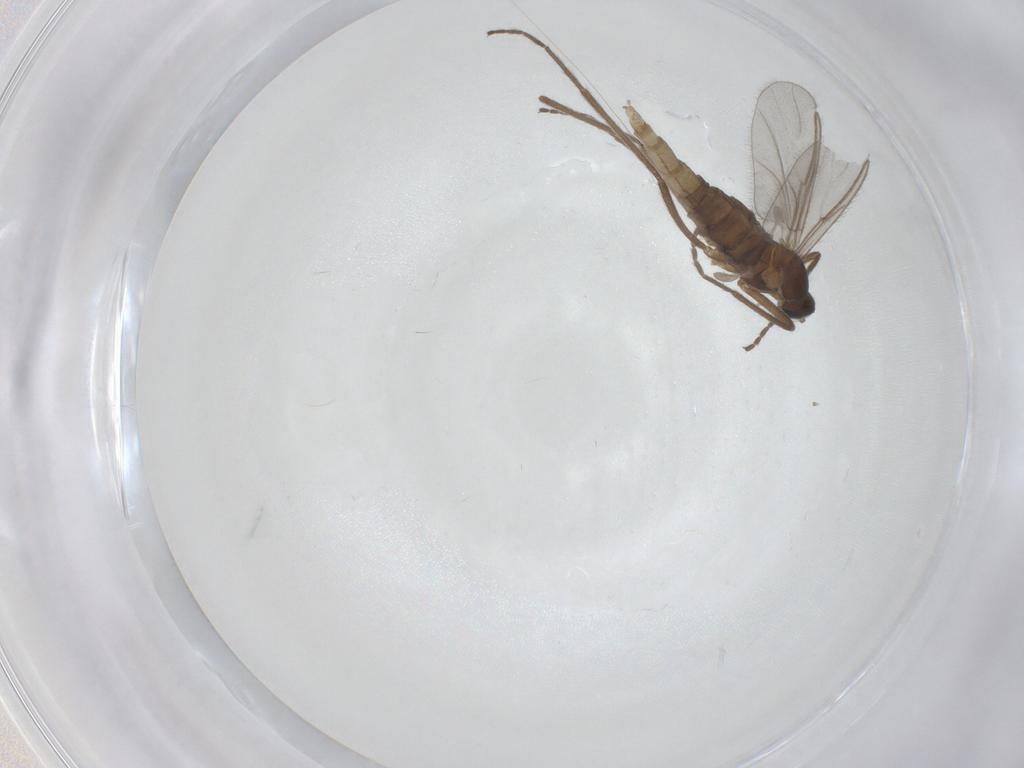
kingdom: Animalia
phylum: Arthropoda
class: Insecta
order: Diptera
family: Cecidomyiidae
